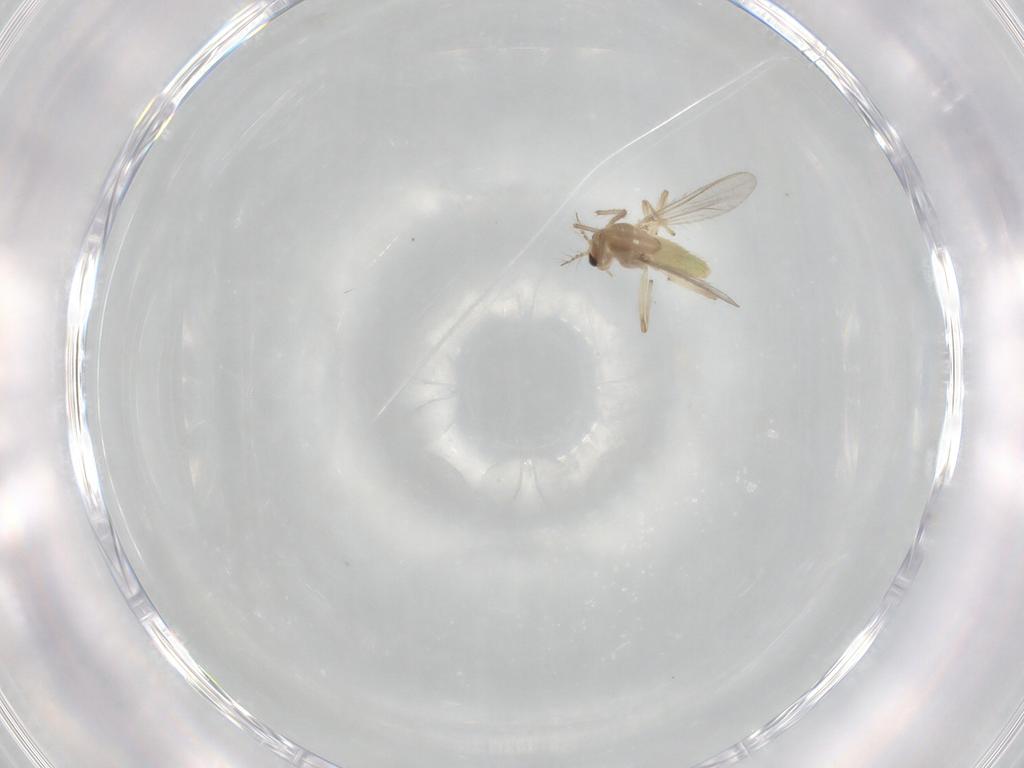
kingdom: Animalia
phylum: Arthropoda
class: Insecta
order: Diptera
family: Chironomidae
